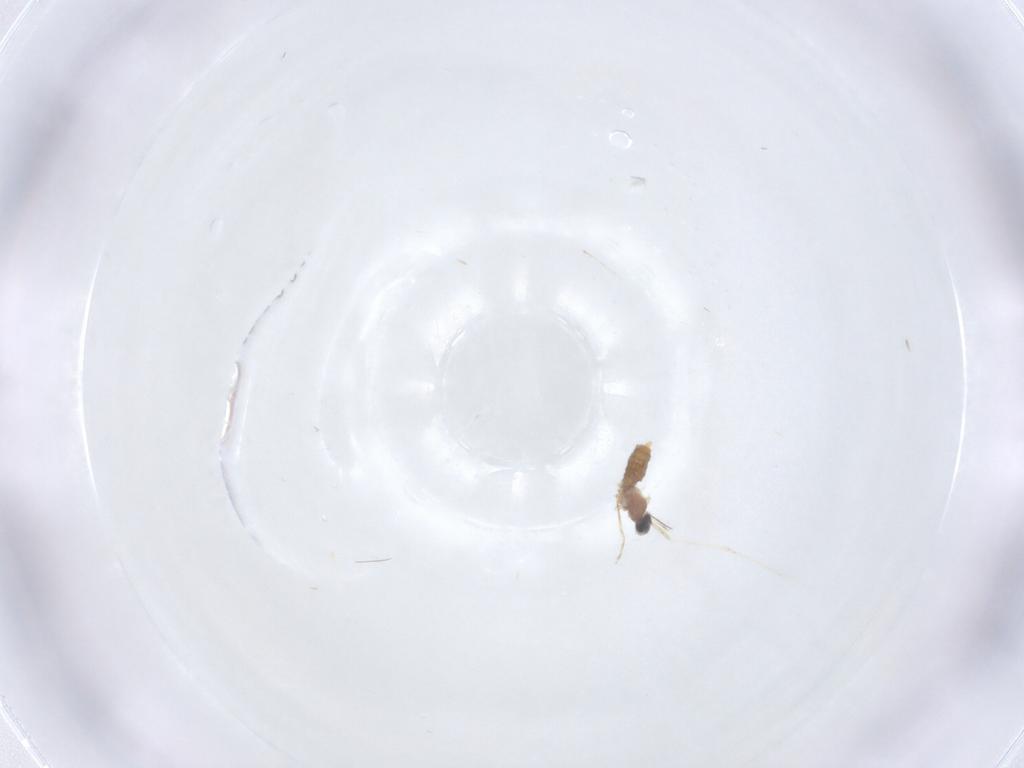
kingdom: Animalia
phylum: Arthropoda
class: Insecta
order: Diptera
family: Cecidomyiidae
